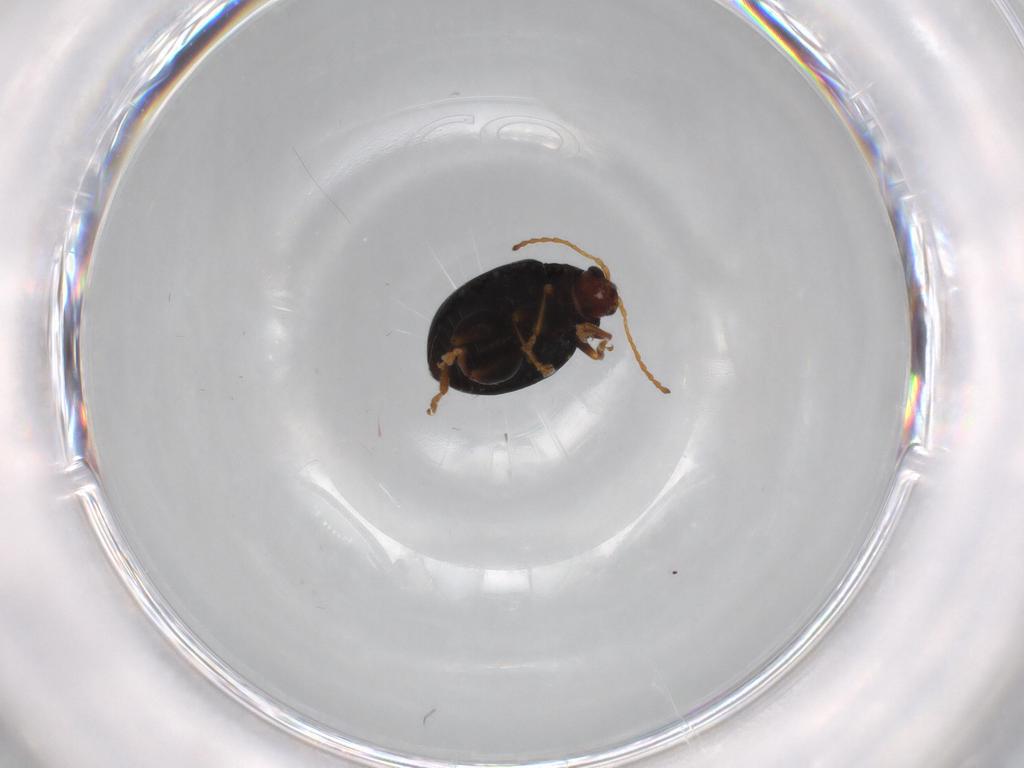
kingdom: Animalia
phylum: Arthropoda
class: Insecta
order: Coleoptera
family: Chrysomelidae
